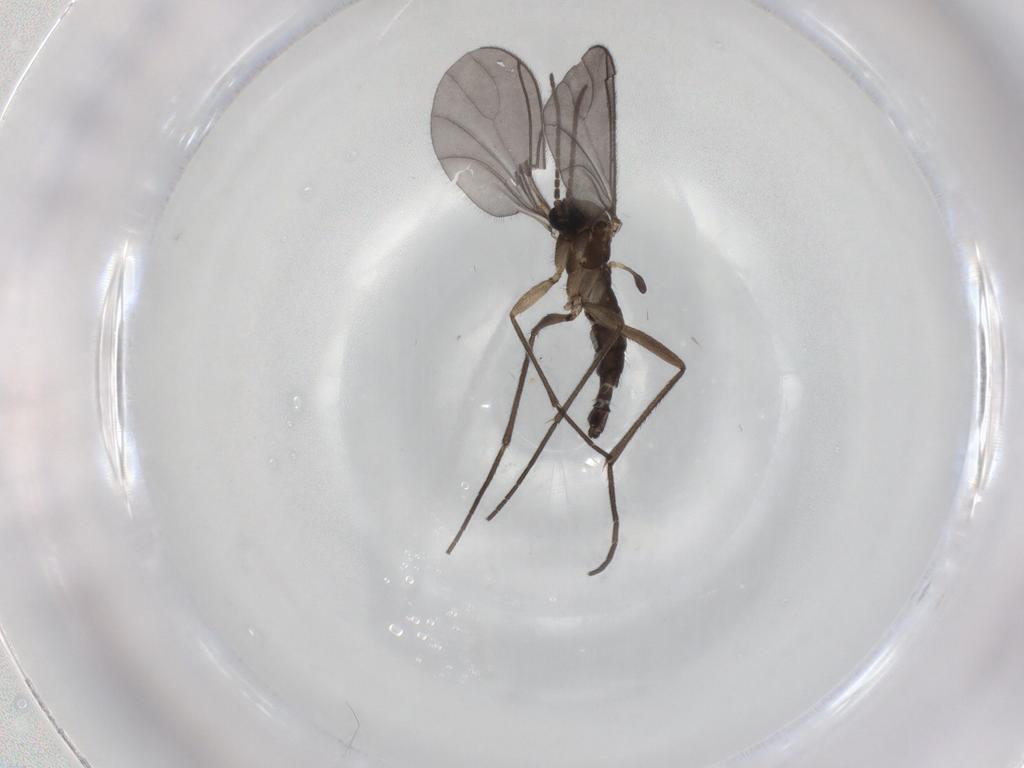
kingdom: Animalia
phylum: Arthropoda
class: Insecta
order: Diptera
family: Sciaridae
